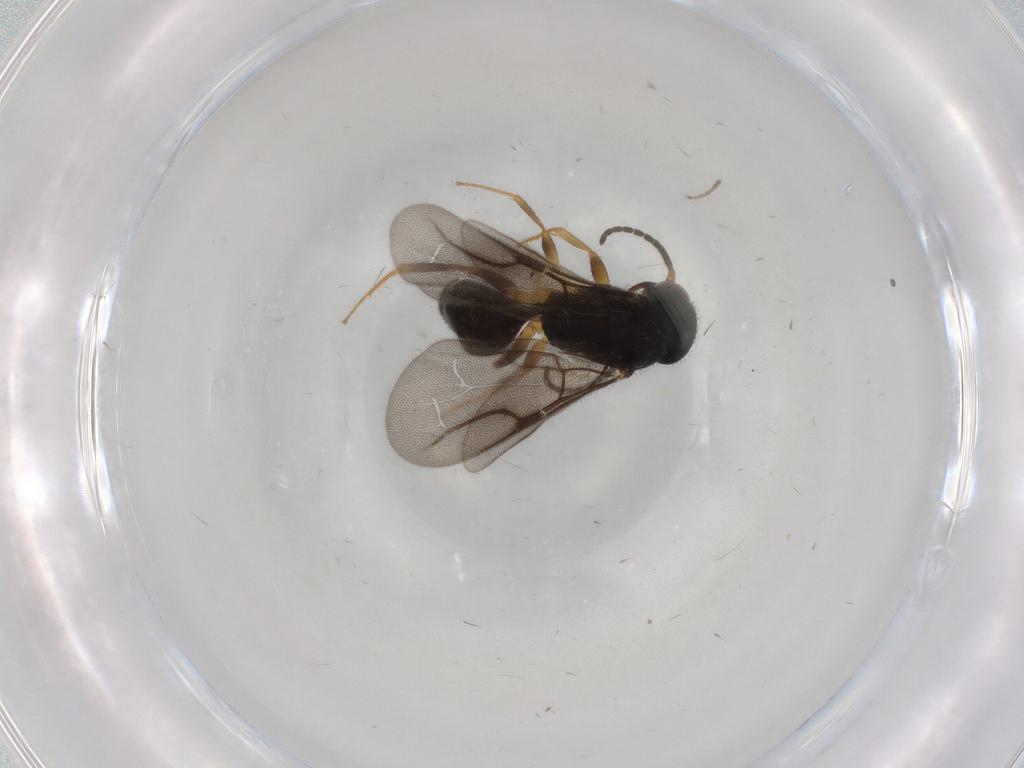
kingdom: Animalia
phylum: Arthropoda
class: Insecta
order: Hymenoptera
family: Bethylidae
